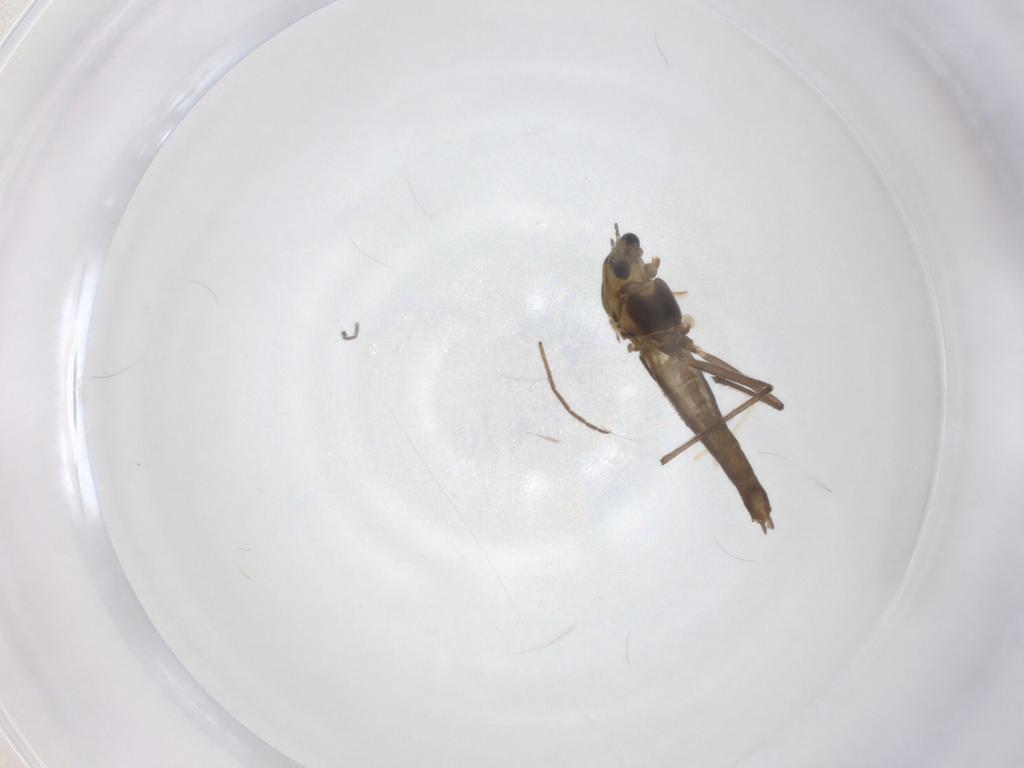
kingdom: Animalia
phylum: Arthropoda
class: Insecta
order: Diptera
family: Chironomidae
